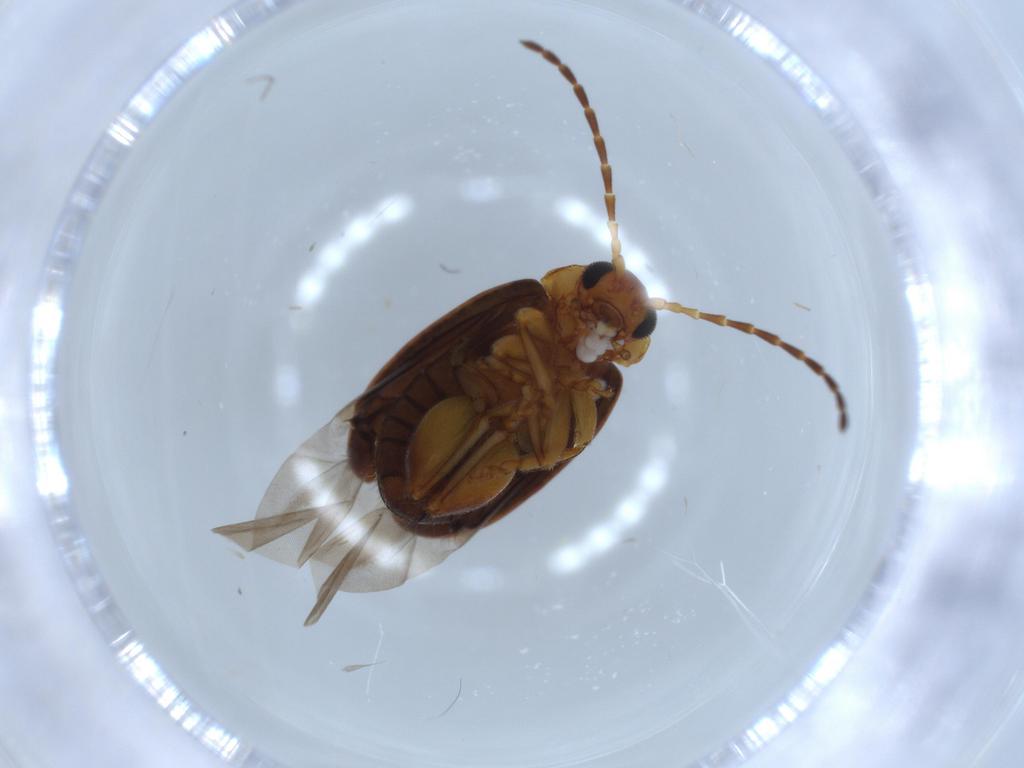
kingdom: Animalia
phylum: Arthropoda
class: Insecta
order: Coleoptera
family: Chrysomelidae
